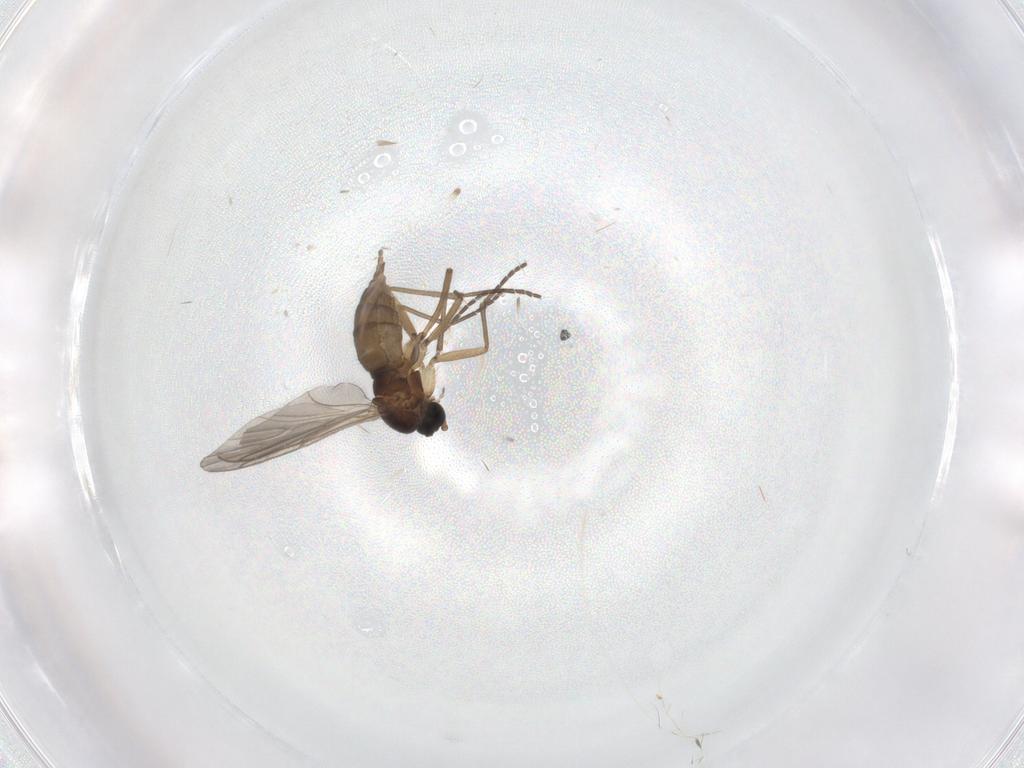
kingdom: Animalia
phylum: Arthropoda
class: Insecta
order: Diptera
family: Sciaridae
